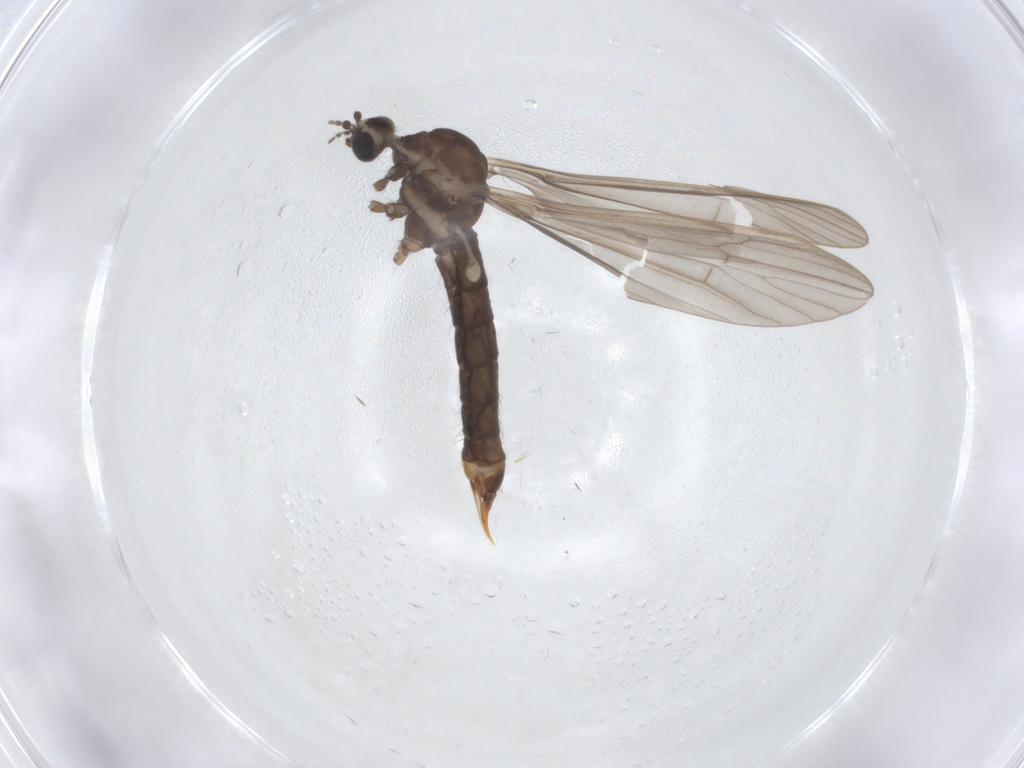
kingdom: Animalia
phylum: Arthropoda
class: Insecta
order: Diptera
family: Limoniidae
